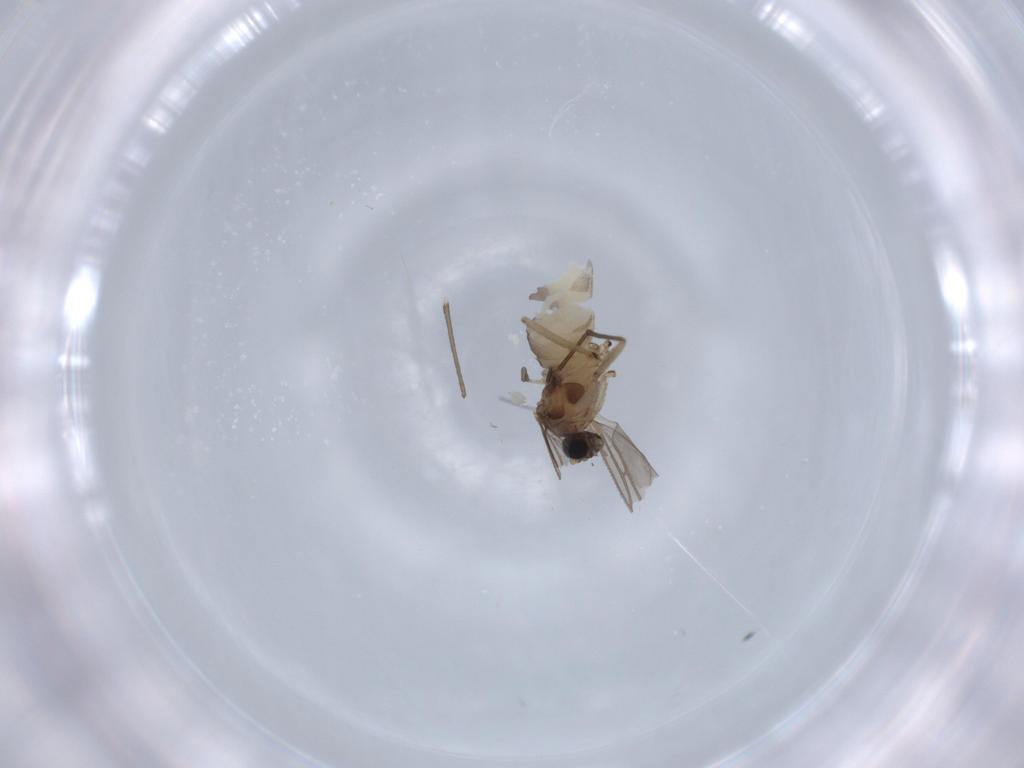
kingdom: Animalia
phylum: Arthropoda
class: Insecta
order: Diptera
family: Sciaridae
